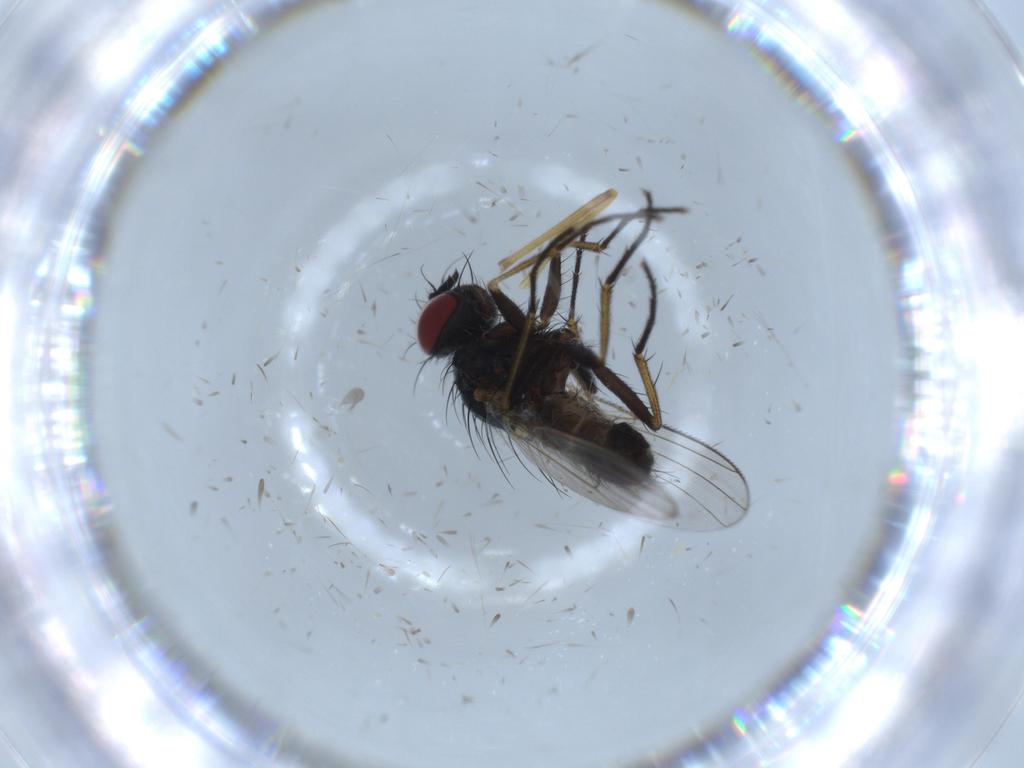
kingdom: Animalia
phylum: Arthropoda
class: Insecta
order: Diptera
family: Chironomidae
